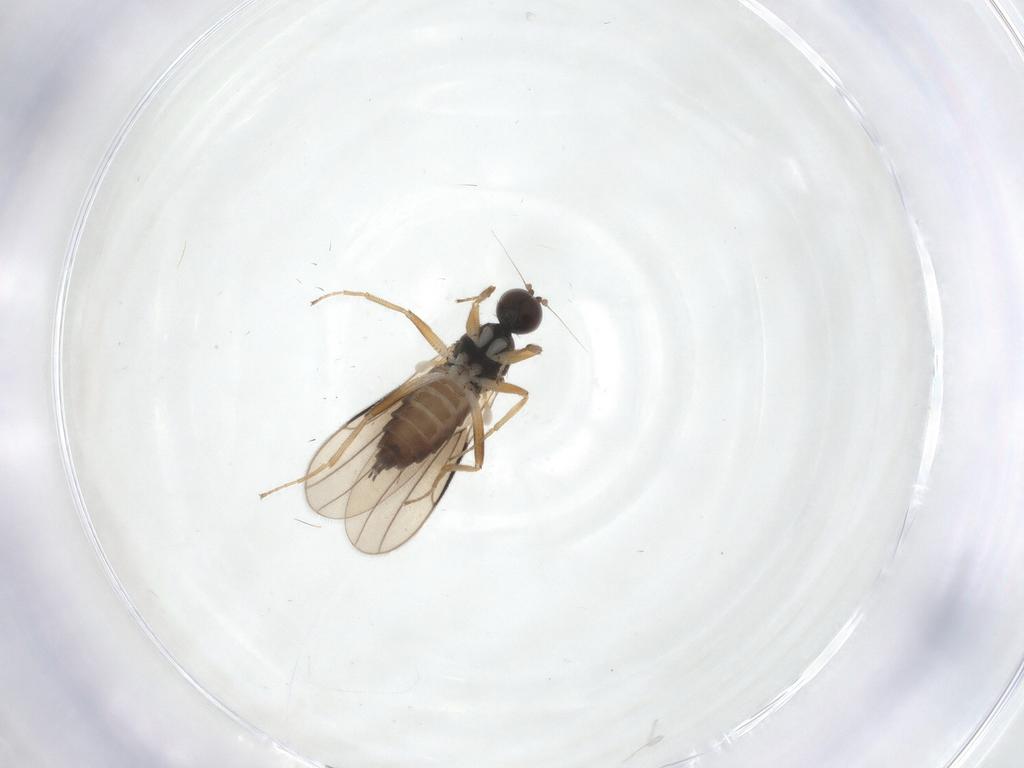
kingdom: Animalia
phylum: Arthropoda
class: Insecta
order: Diptera
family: Hybotidae
